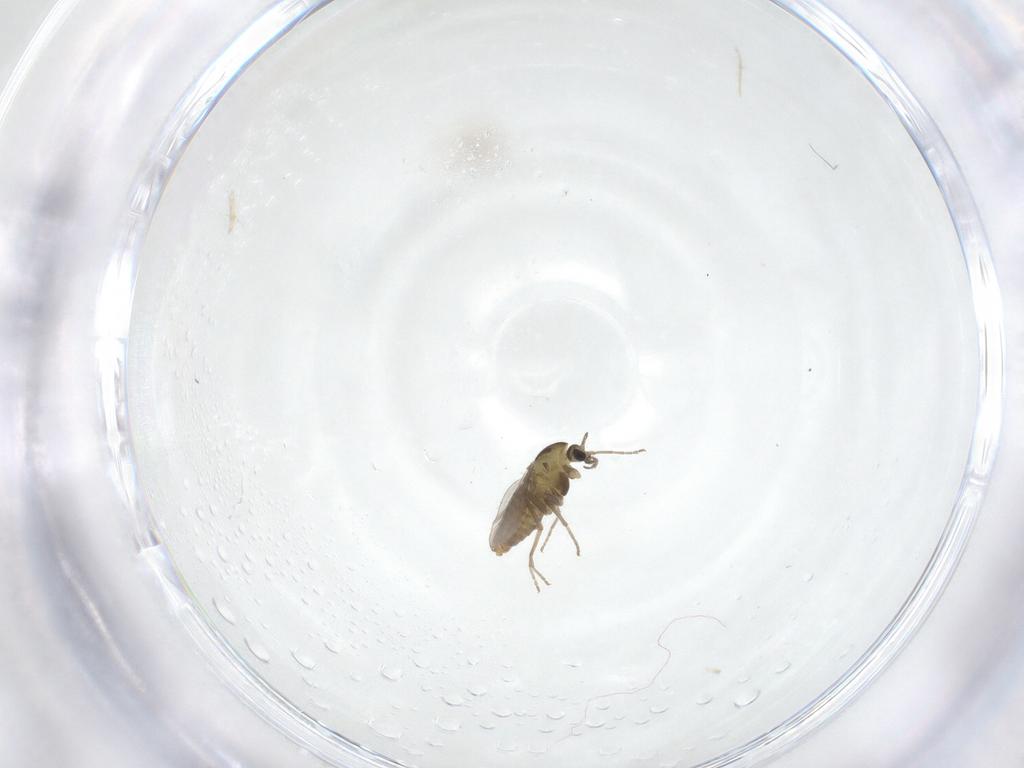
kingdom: Animalia
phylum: Arthropoda
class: Insecta
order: Diptera
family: Chironomidae
